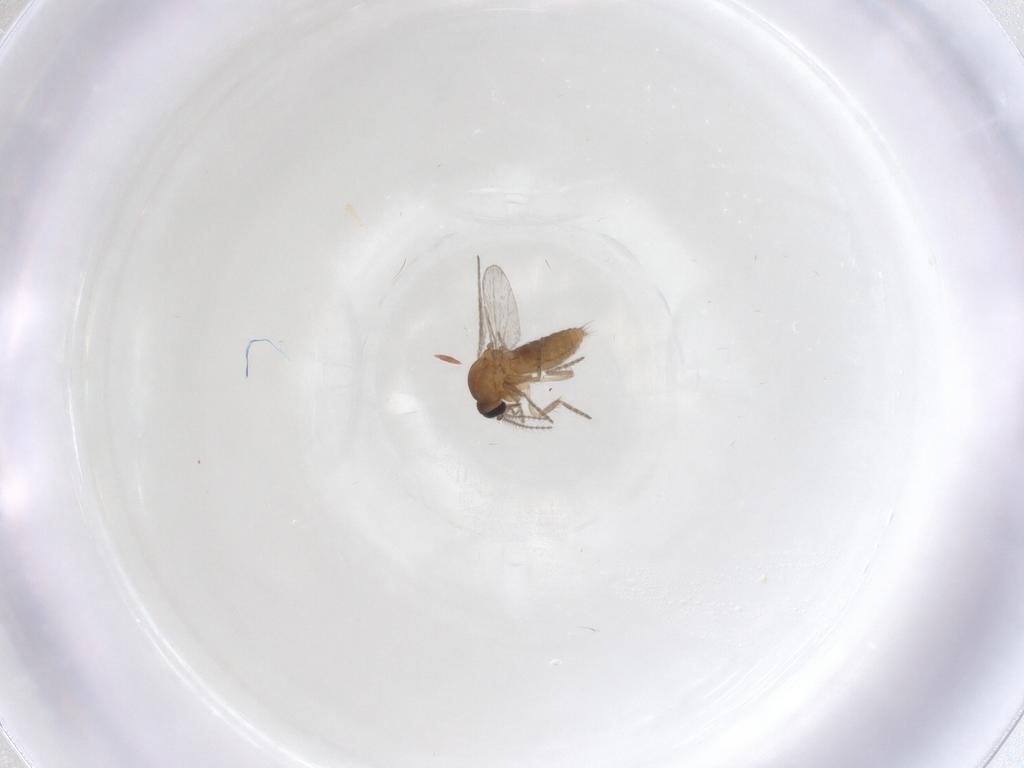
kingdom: Animalia
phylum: Arthropoda
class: Insecta
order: Diptera
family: Ceratopogonidae
